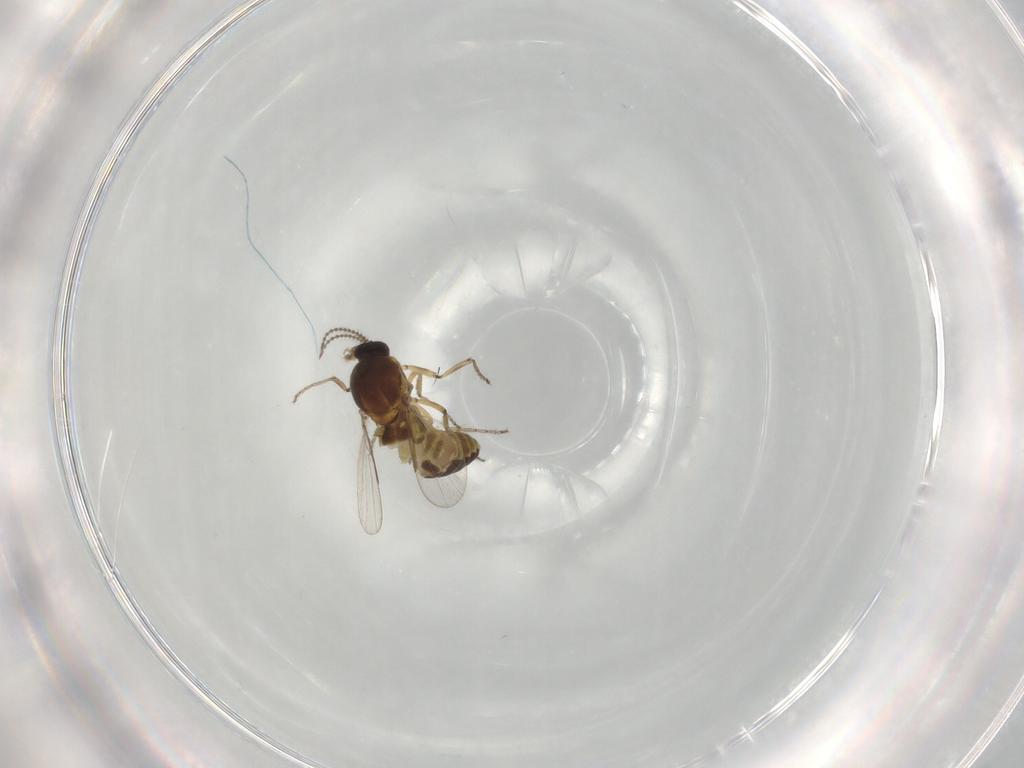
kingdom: Animalia
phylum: Arthropoda
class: Insecta
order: Diptera
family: Ceratopogonidae
